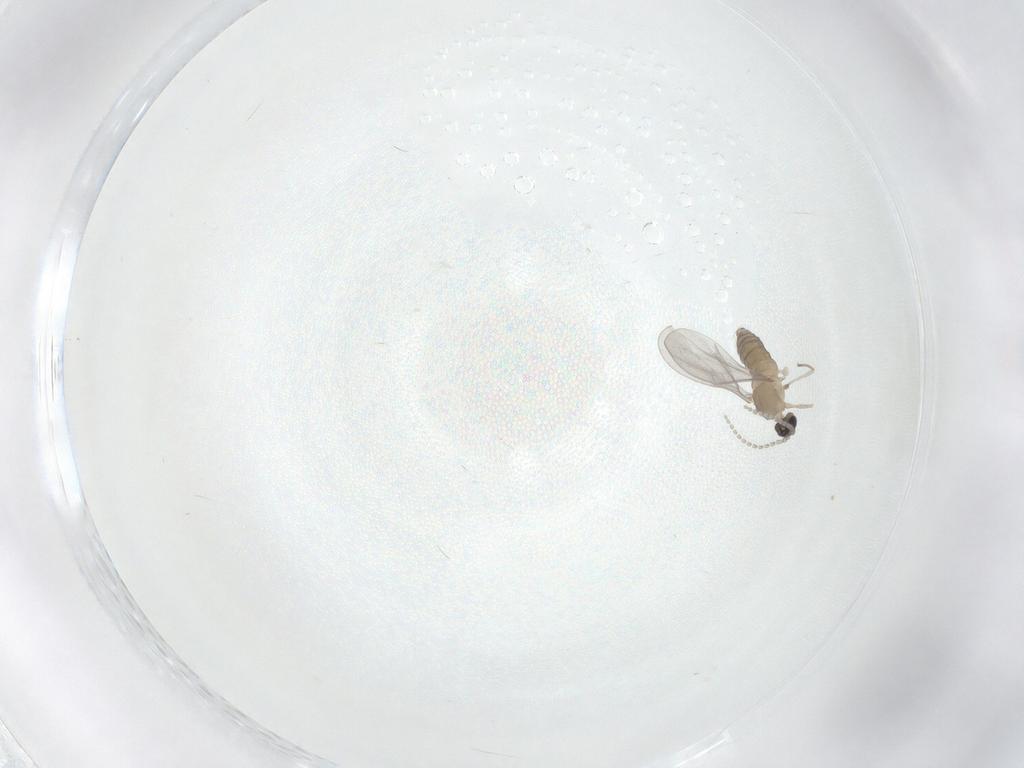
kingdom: Animalia
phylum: Arthropoda
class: Insecta
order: Diptera
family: Cecidomyiidae
